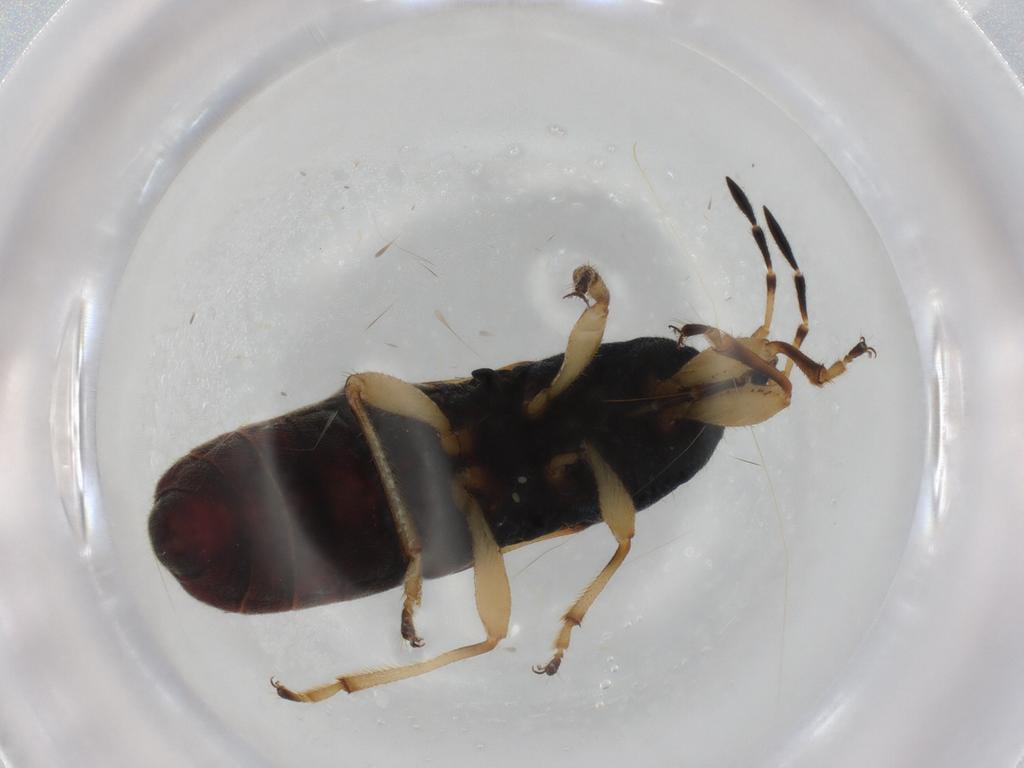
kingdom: Animalia
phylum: Arthropoda
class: Insecta
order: Hemiptera
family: Blissidae
